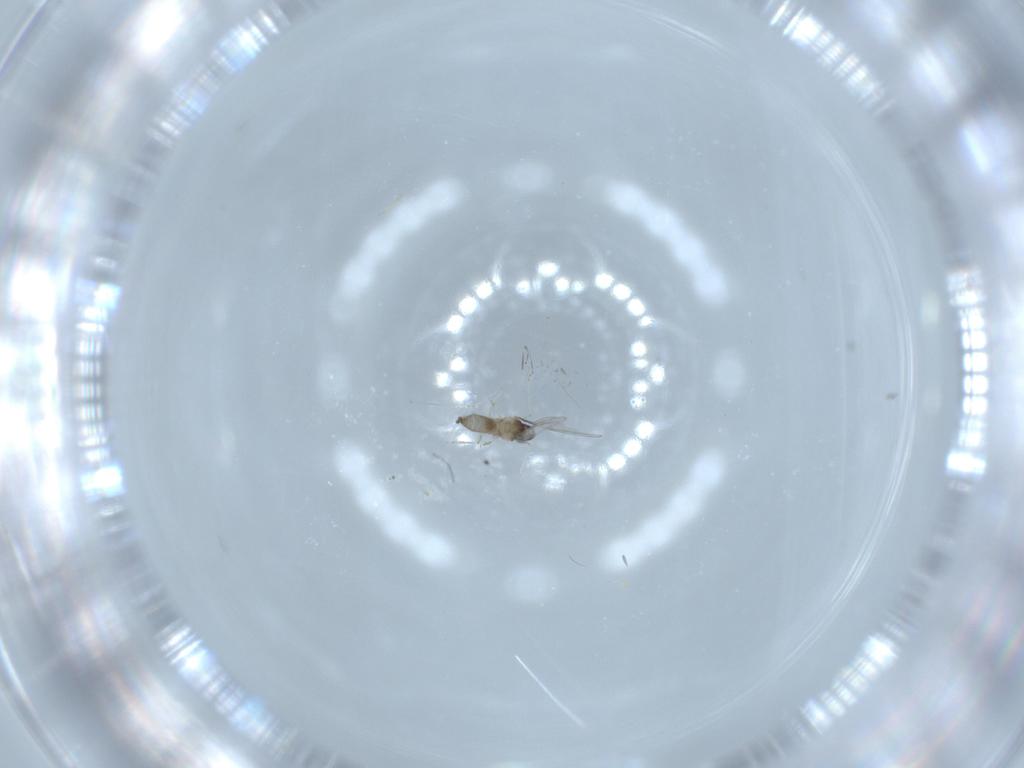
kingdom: Animalia
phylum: Arthropoda
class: Insecta
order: Diptera
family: Cecidomyiidae
